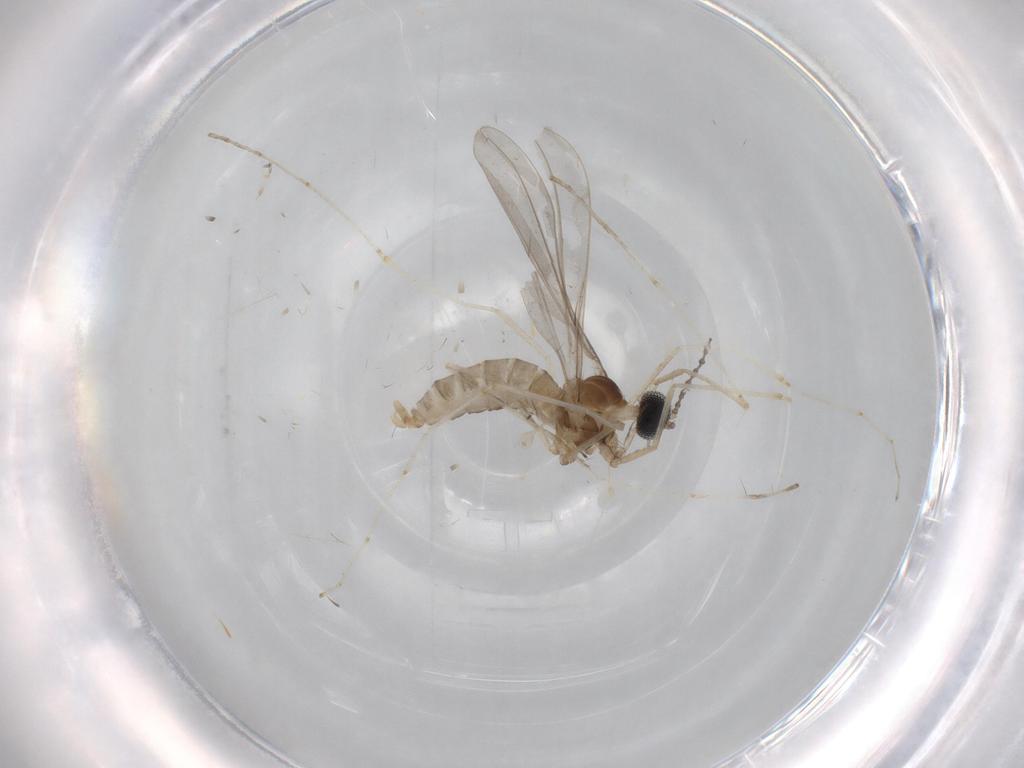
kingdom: Animalia
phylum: Arthropoda
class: Insecta
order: Diptera
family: Cecidomyiidae
